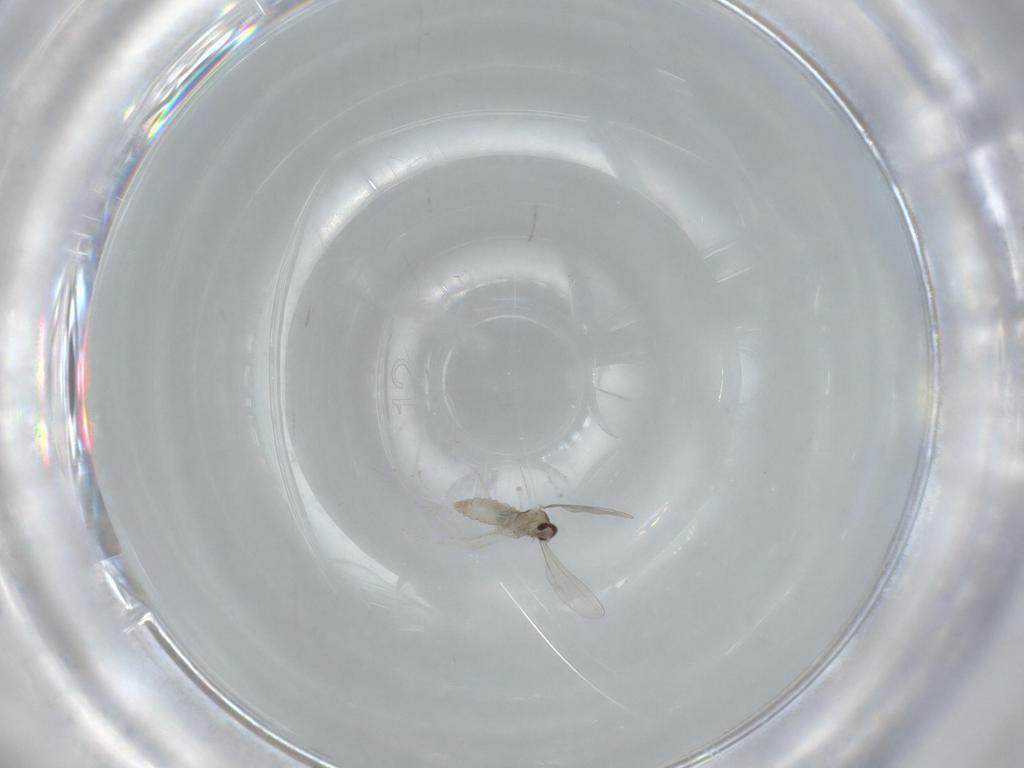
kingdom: Animalia
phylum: Arthropoda
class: Insecta
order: Diptera
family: Cecidomyiidae
